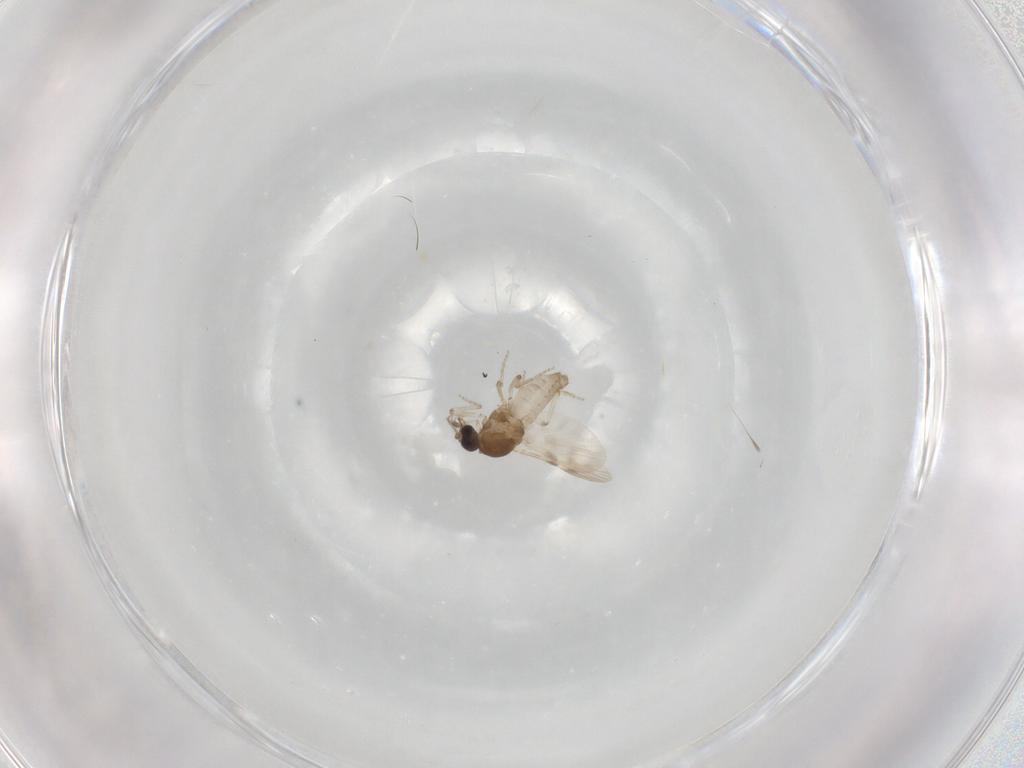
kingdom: Animalia
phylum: Arthropoda
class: Insecta
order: Diptera
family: Ceratopogonidae
